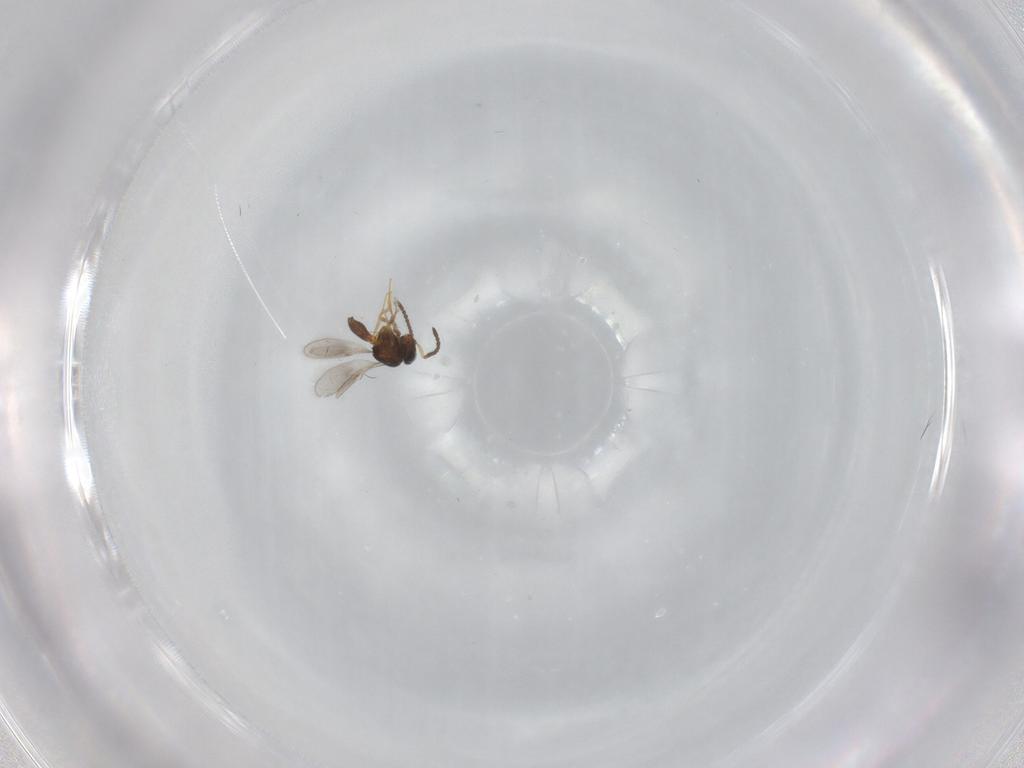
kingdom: Animalia
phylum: Arthropoda
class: Insecta
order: Hymenoptera
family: Scelionidae
